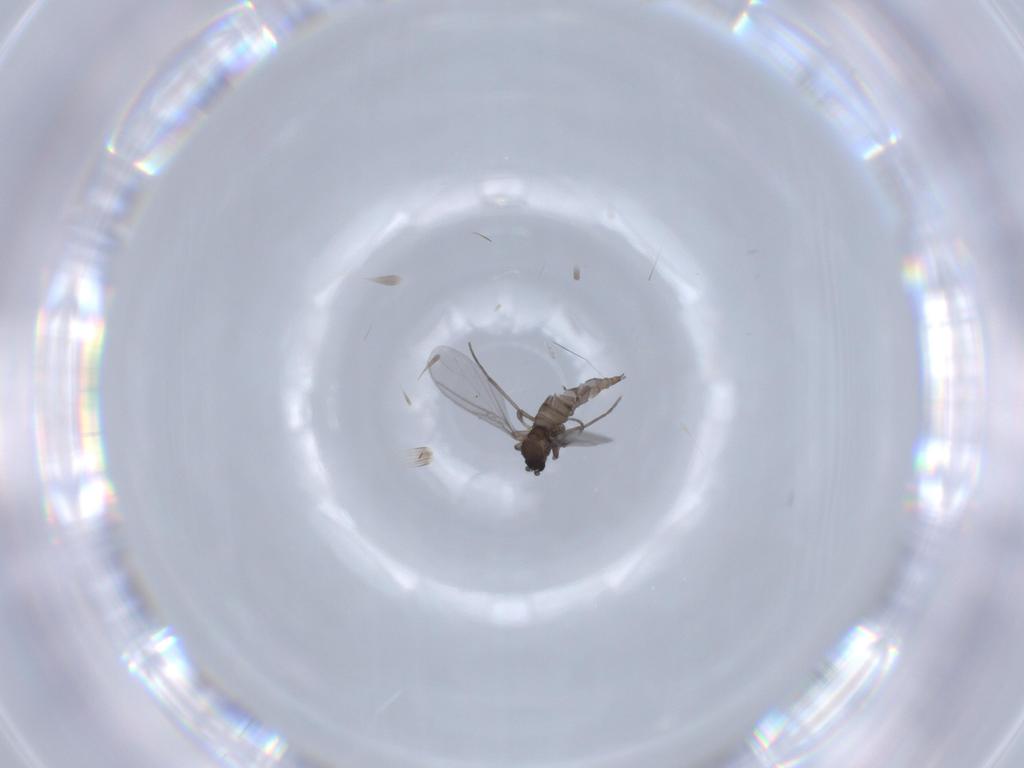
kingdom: Animalia
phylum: Arthropoda
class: Insecta
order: Diptera
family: Sciaridae
